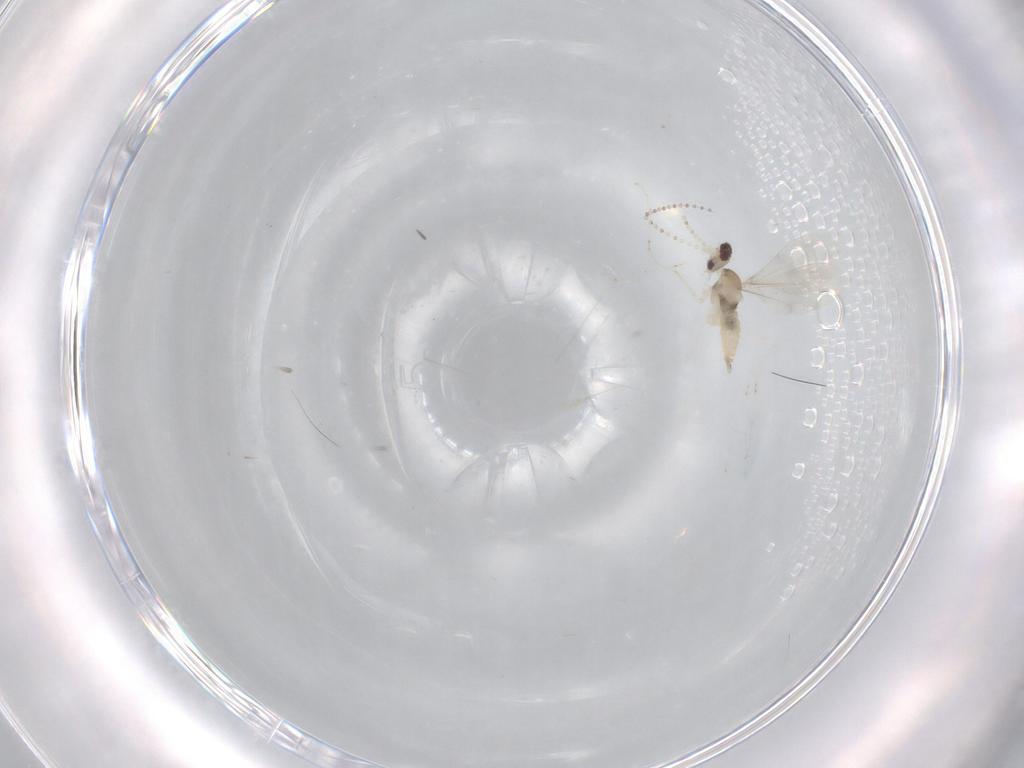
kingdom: Animalia
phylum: Arthropoda
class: Insecta
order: Diptera
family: Cecidomyiidae
